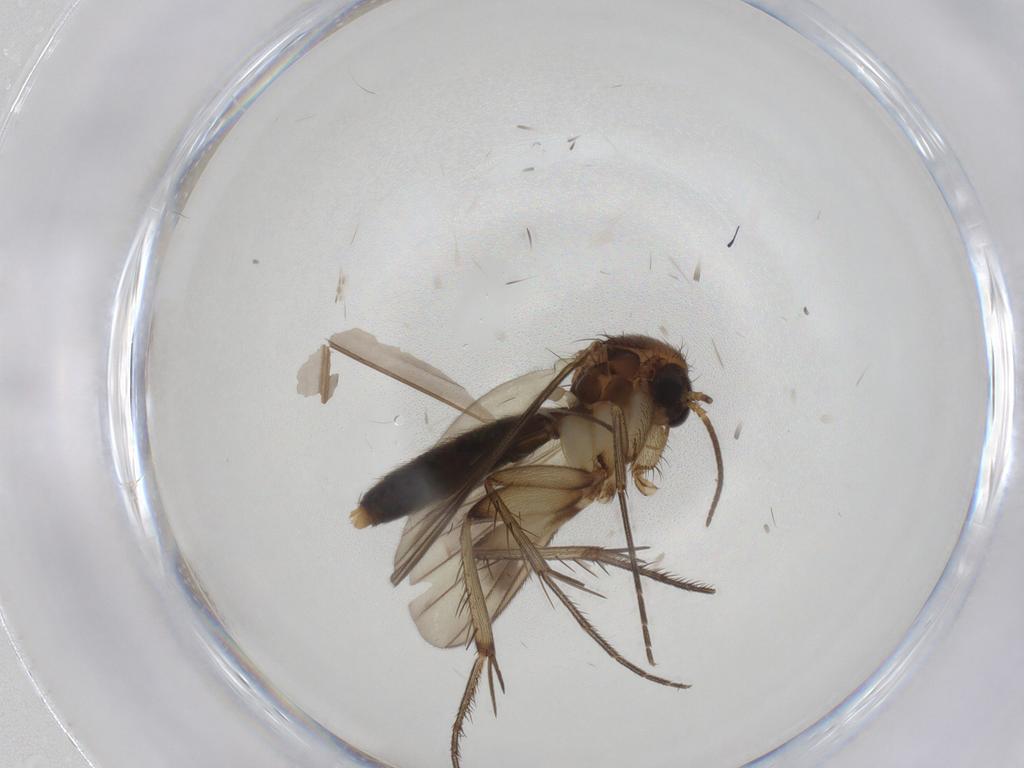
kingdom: Animalia
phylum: Arthropoda
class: Insecta
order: Diptera
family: Mycetophilidae
